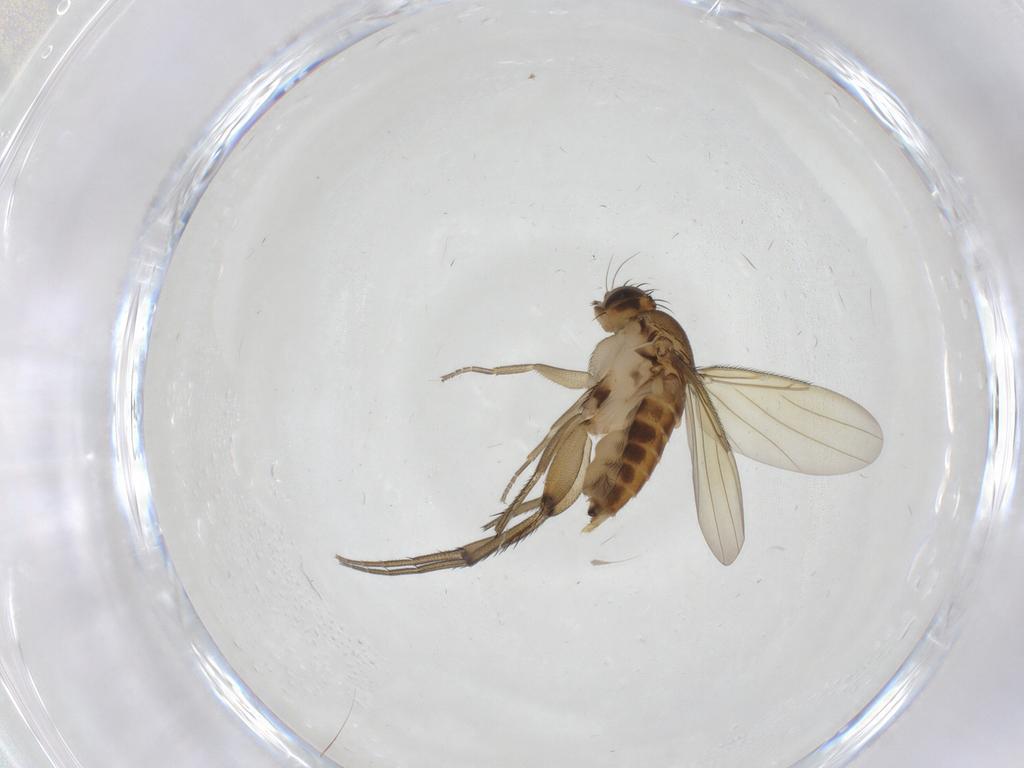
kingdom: Animalia
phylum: Arthropoda
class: Insecta
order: Diptera
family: Phoridae
